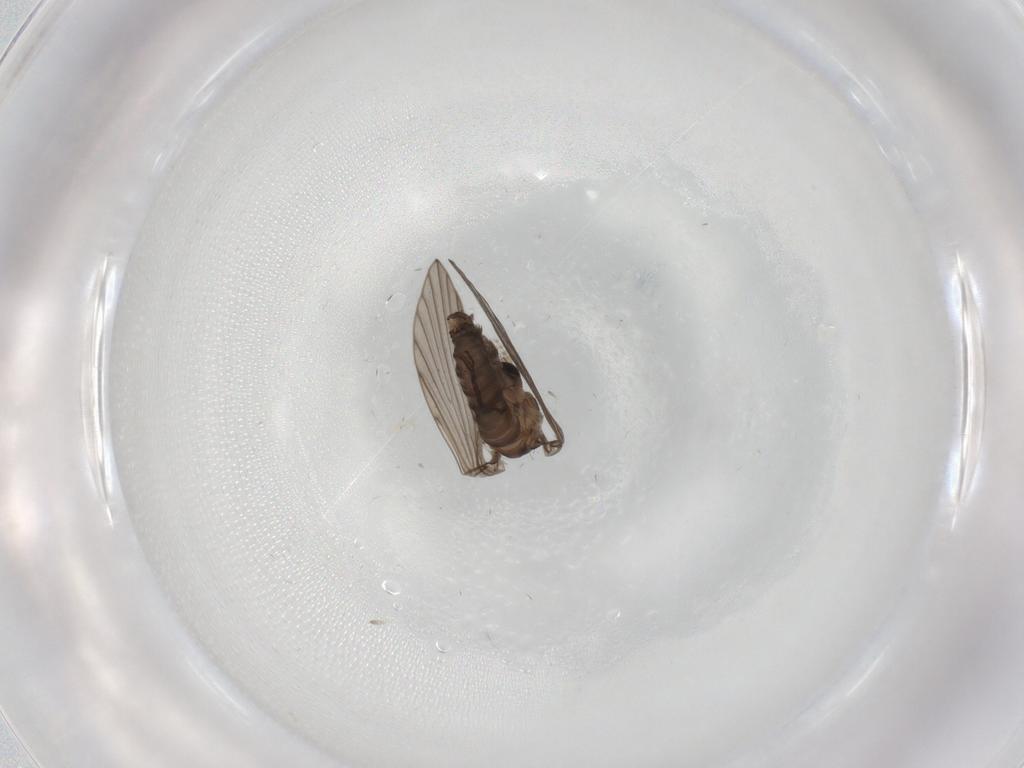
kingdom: Animalia
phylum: Arthropoda
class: Insecta
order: Diptera
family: Psychodidae
